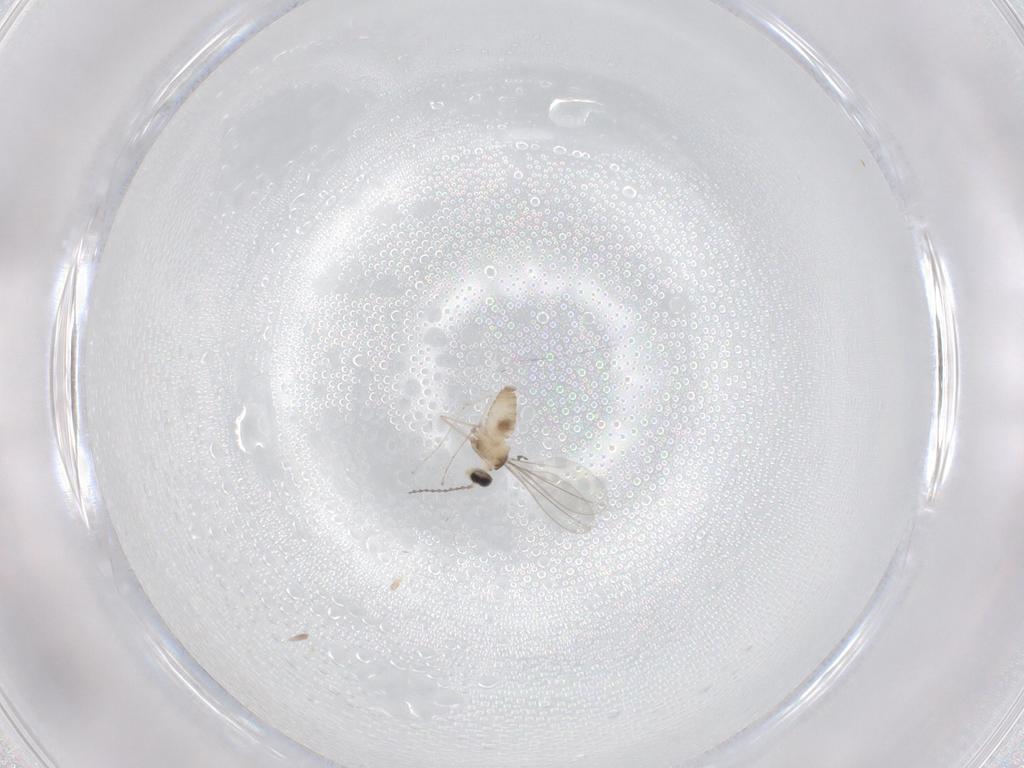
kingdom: Animalia
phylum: Arthropoda
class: Insecta
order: Diptera
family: Cecidomyiidae
